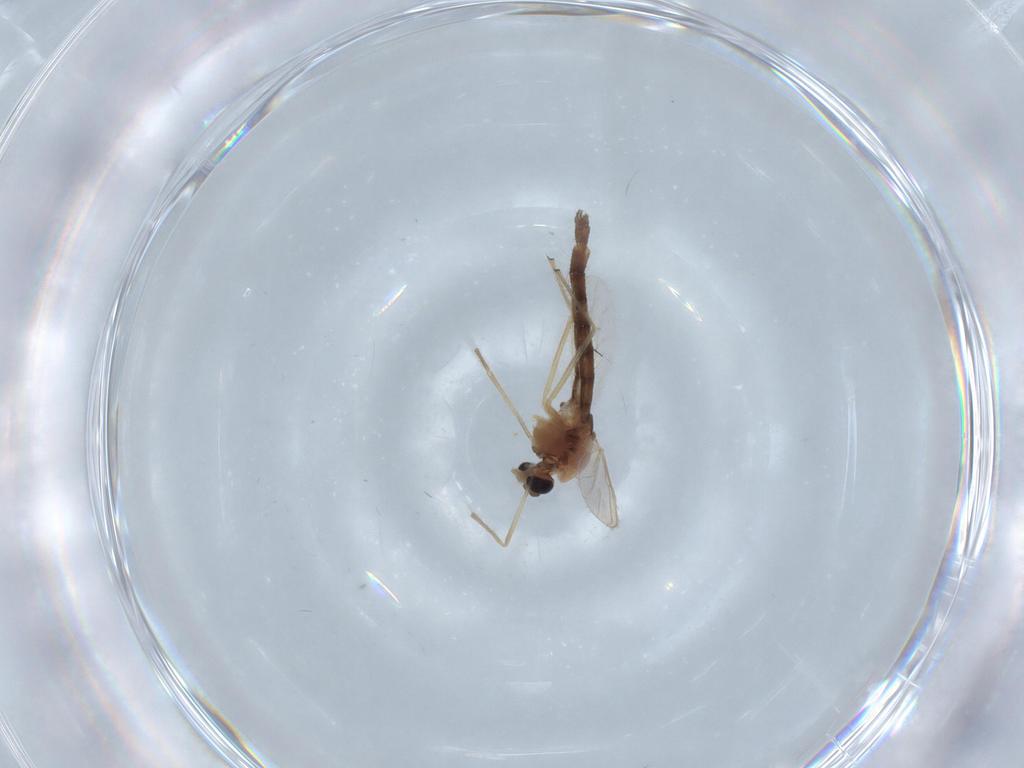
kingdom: Animalia
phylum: Arthropoda
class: Insecta
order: Diptera
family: Chironomidae
